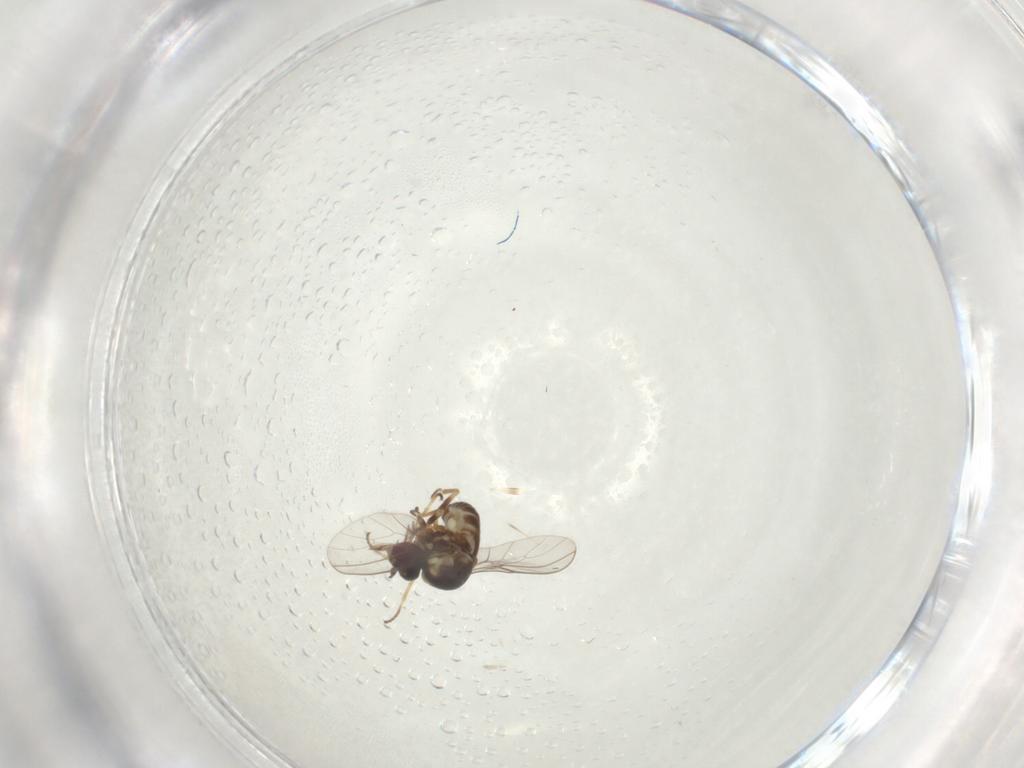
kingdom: Animalia
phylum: Arthropoda
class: Insecta
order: Diptera
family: Bombyliidae
